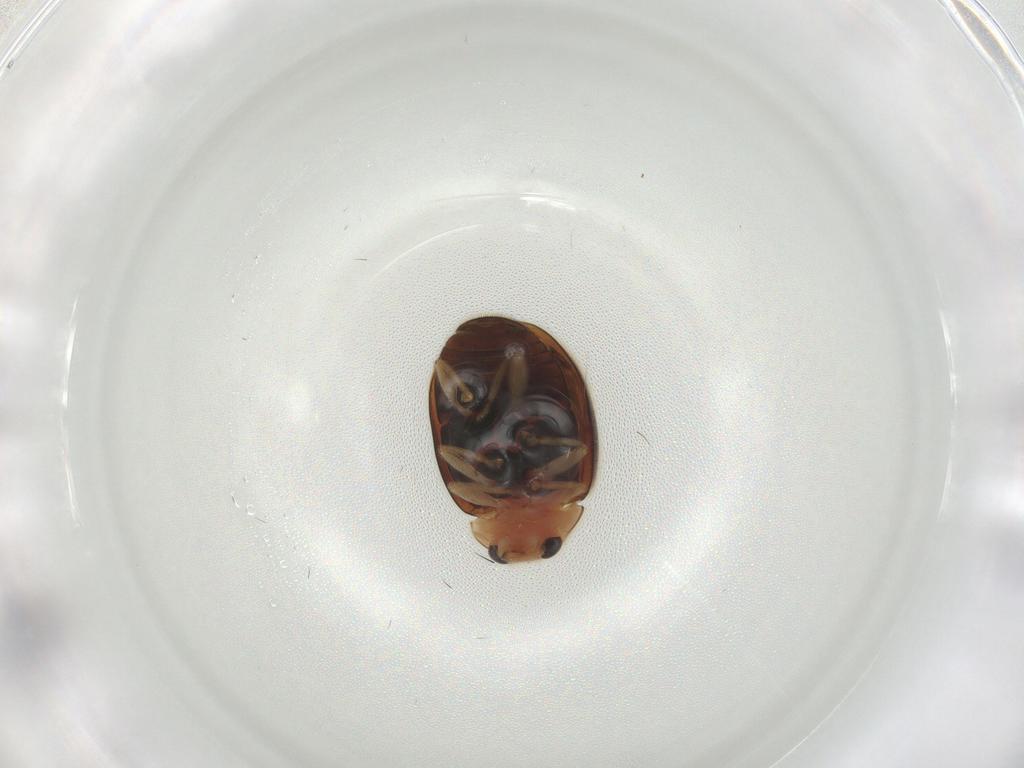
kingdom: Animalia
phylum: Arthropoda
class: Insecta
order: Coleoptera
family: Coccinellidae
